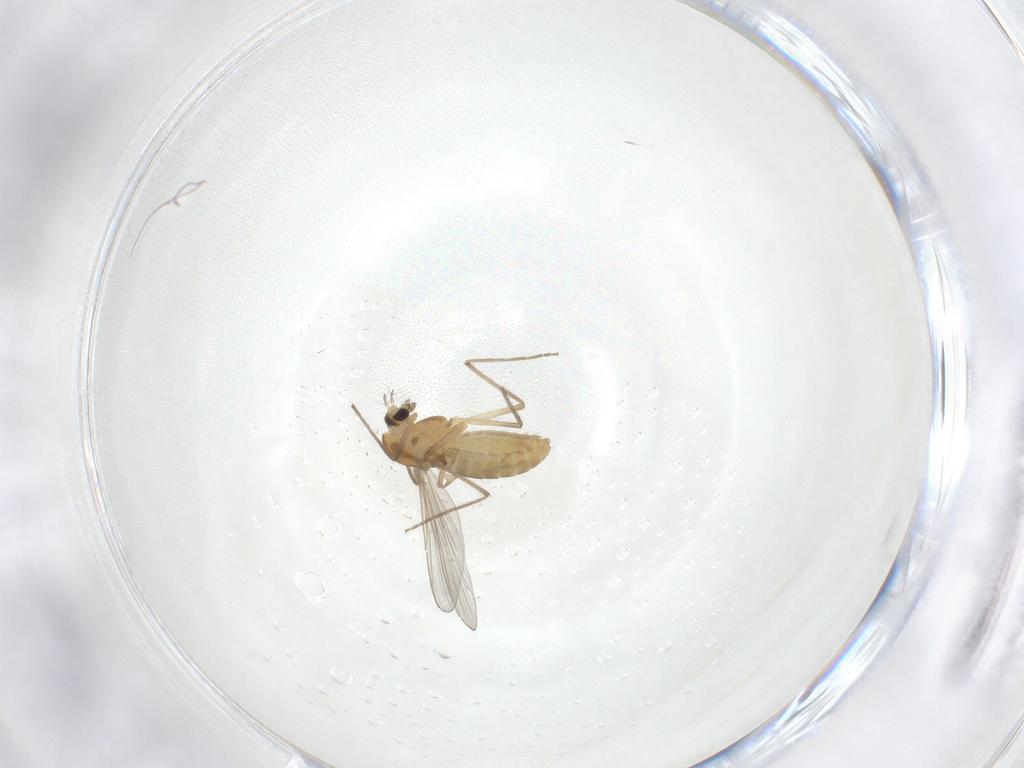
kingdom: Animalia
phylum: Arthropoda
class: Insecta
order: Diptera
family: Chironomidae
